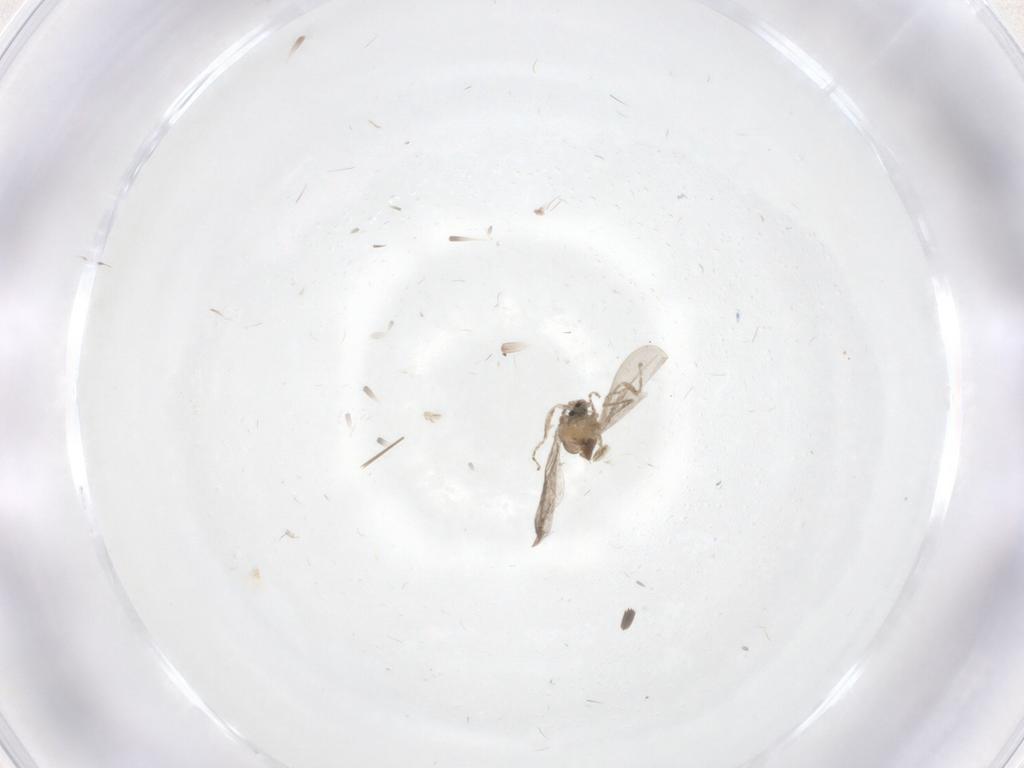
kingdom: Animalia
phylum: Arthropoda
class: Insecta
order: Diptera
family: Cecidomyiidae
